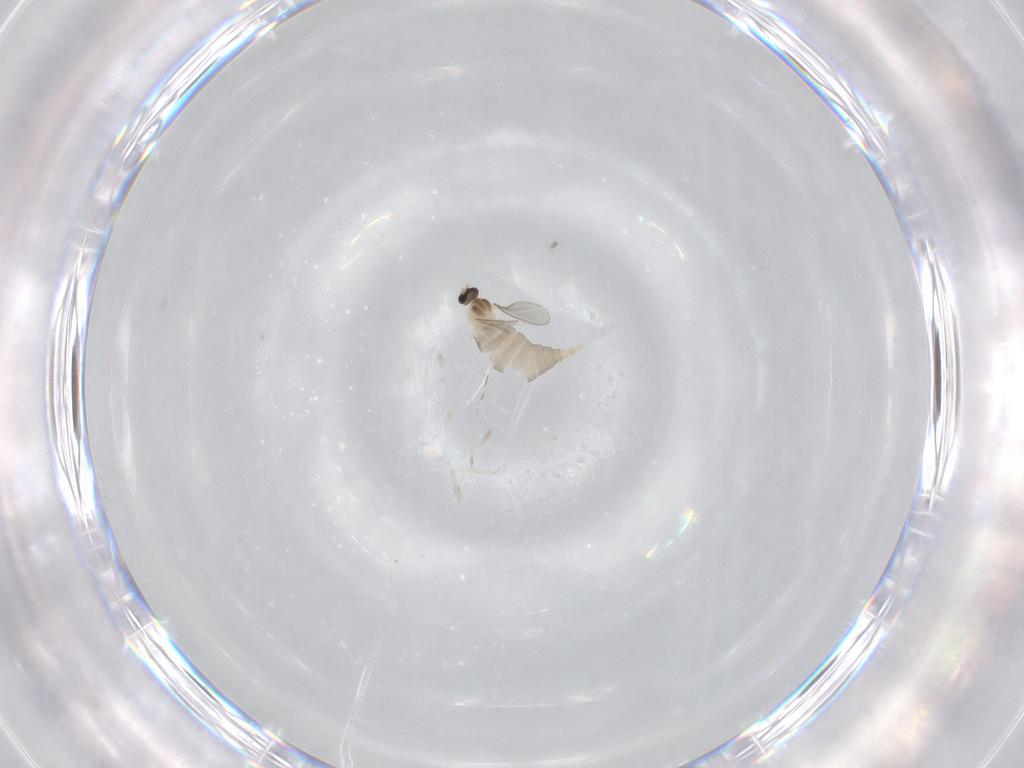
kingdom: Animalia
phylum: Arthropoda
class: Insecta
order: Diptera
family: Cecidomyiidae
